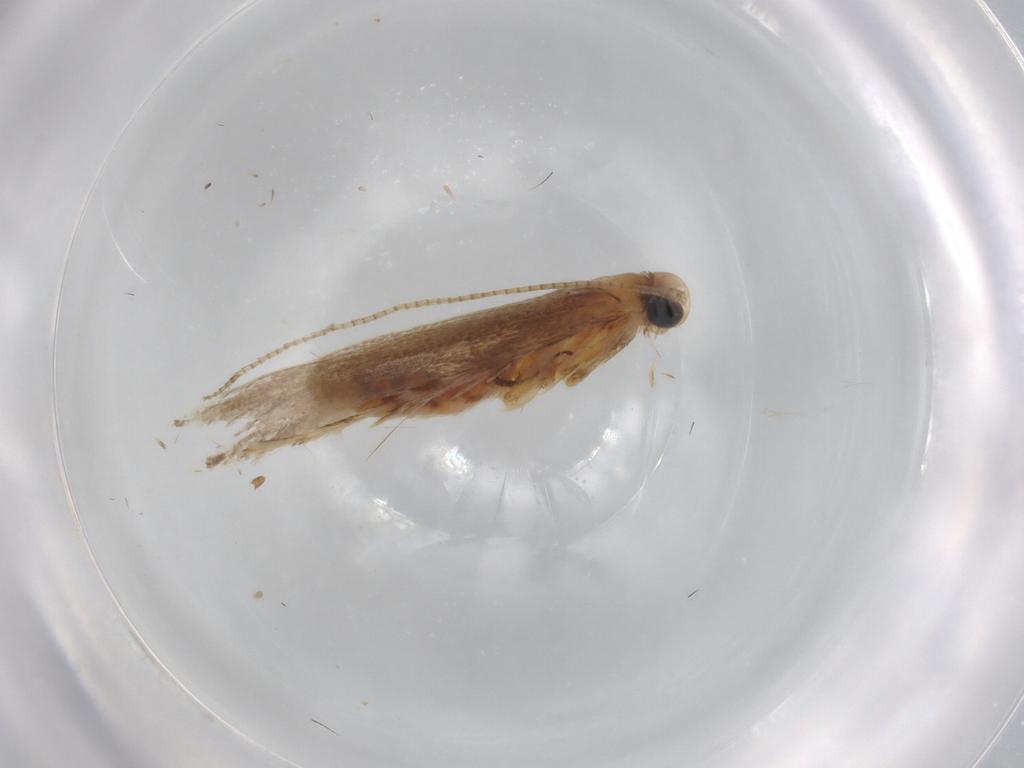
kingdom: Animalia
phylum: Arthropoda
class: Insecta
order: Lepidoptera
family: Gracillariidae
